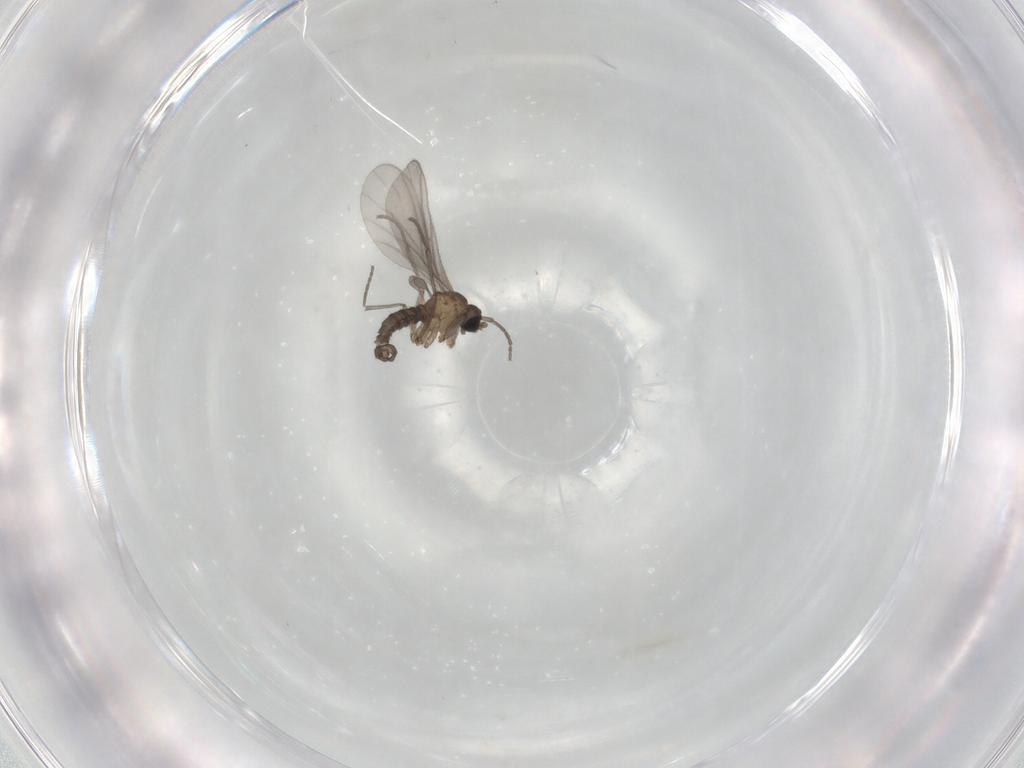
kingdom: Animalia
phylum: Arthropoda
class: Insecta
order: Diptera
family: Sciaridae
